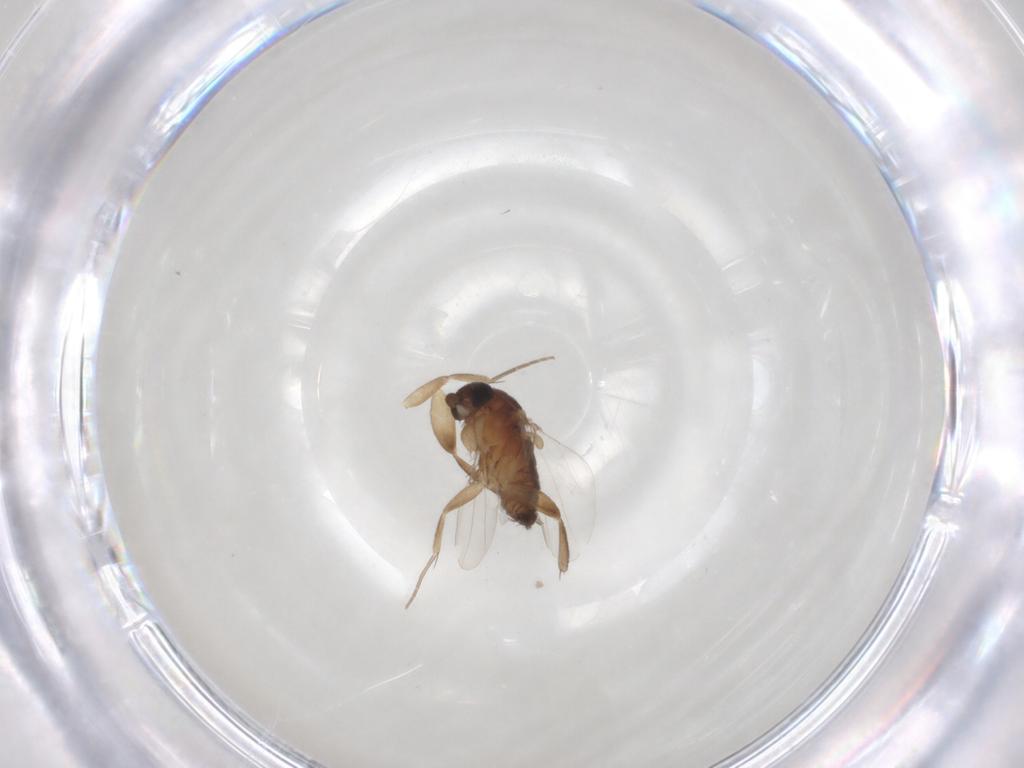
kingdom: Animalia
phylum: Arthropoda
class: Insecta
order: Diptera
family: Phoridae
